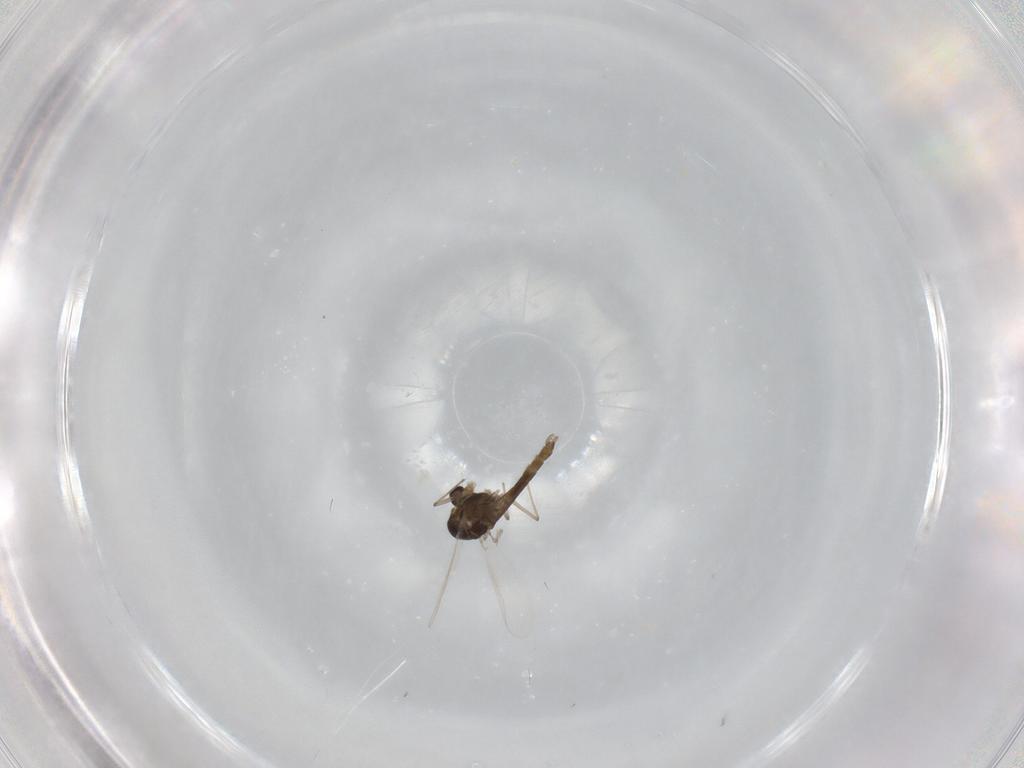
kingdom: Animalia
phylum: Arthropoda
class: Insecta
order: Diptera
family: Chironomidae
